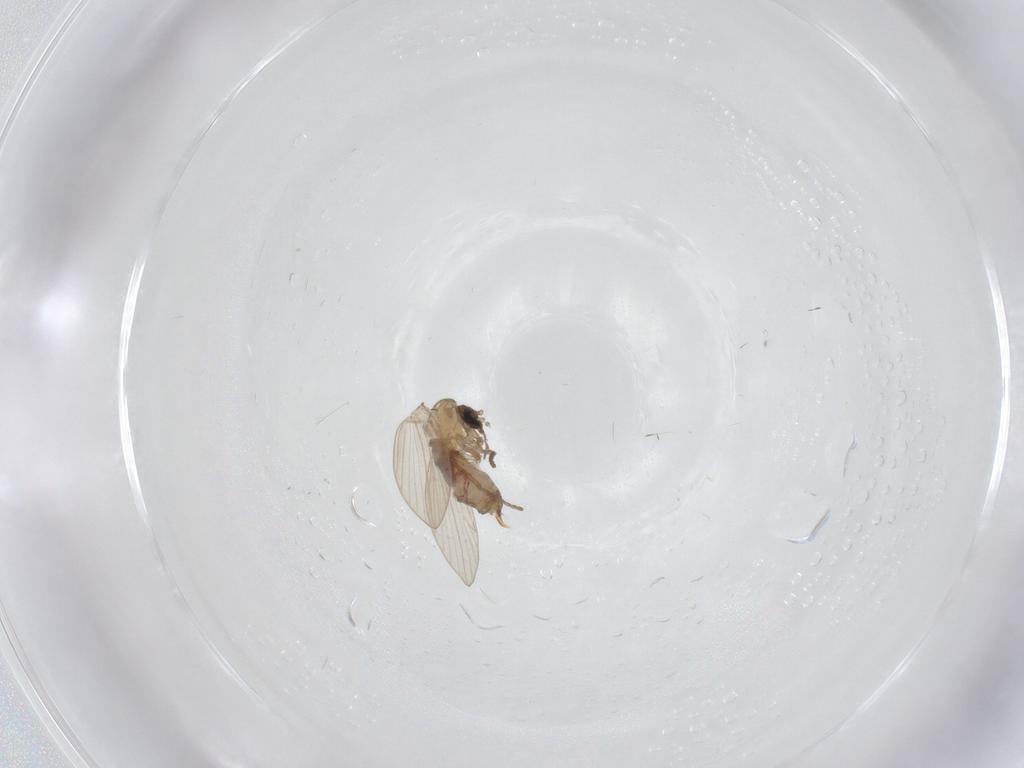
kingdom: Animalia
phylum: Arthropoda
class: Insecta
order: Diptera
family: Psychodidae
